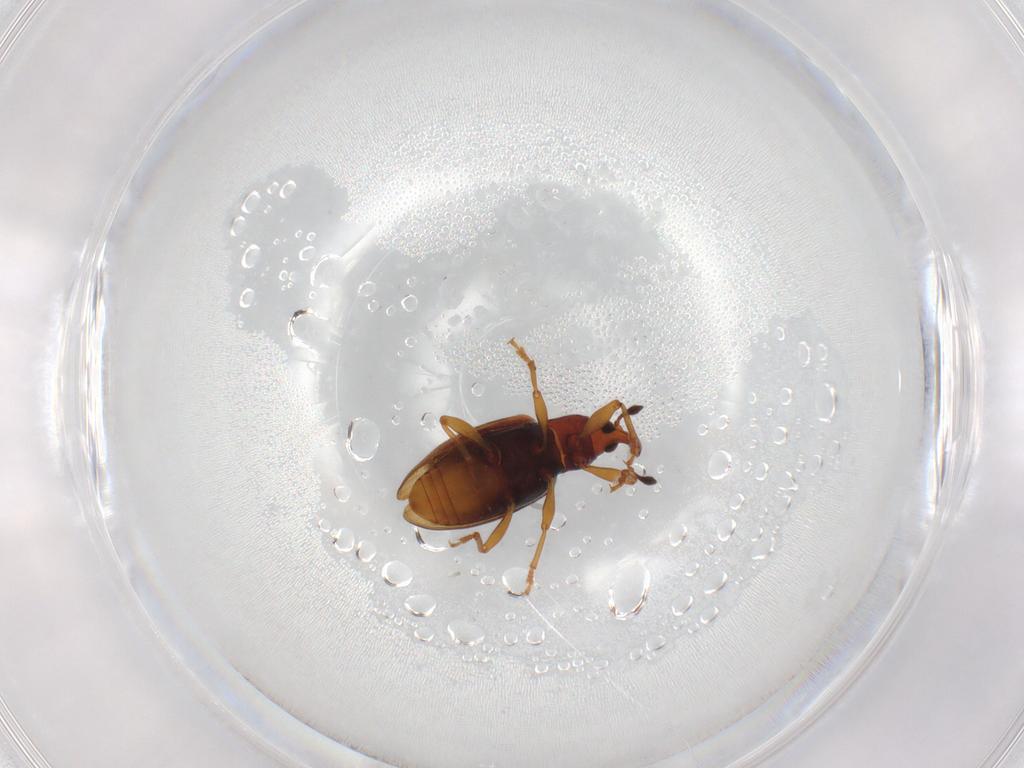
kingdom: Animalia
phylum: Arthropoda
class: Insecta
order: Coleoptera
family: Curculionidae
